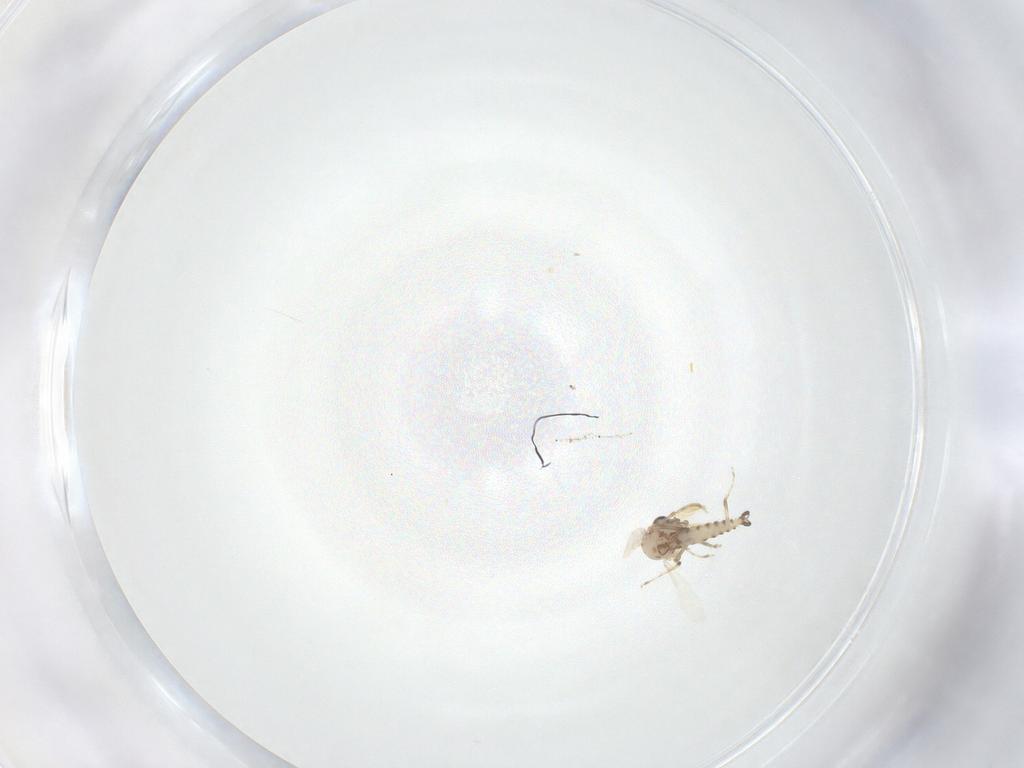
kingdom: Animalia
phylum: Arthropoda
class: Insecta
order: Diptera
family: Ceratopogonidae
